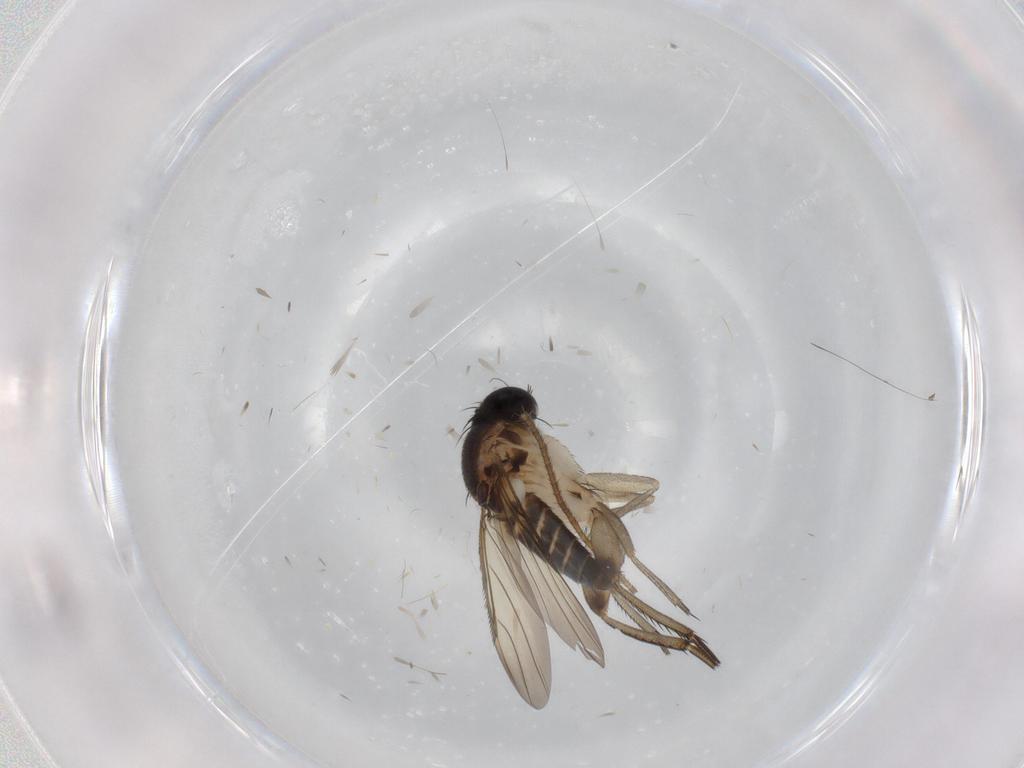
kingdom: Animalia
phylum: Arthropoda
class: Insecta
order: Diptera
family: Phoridae
